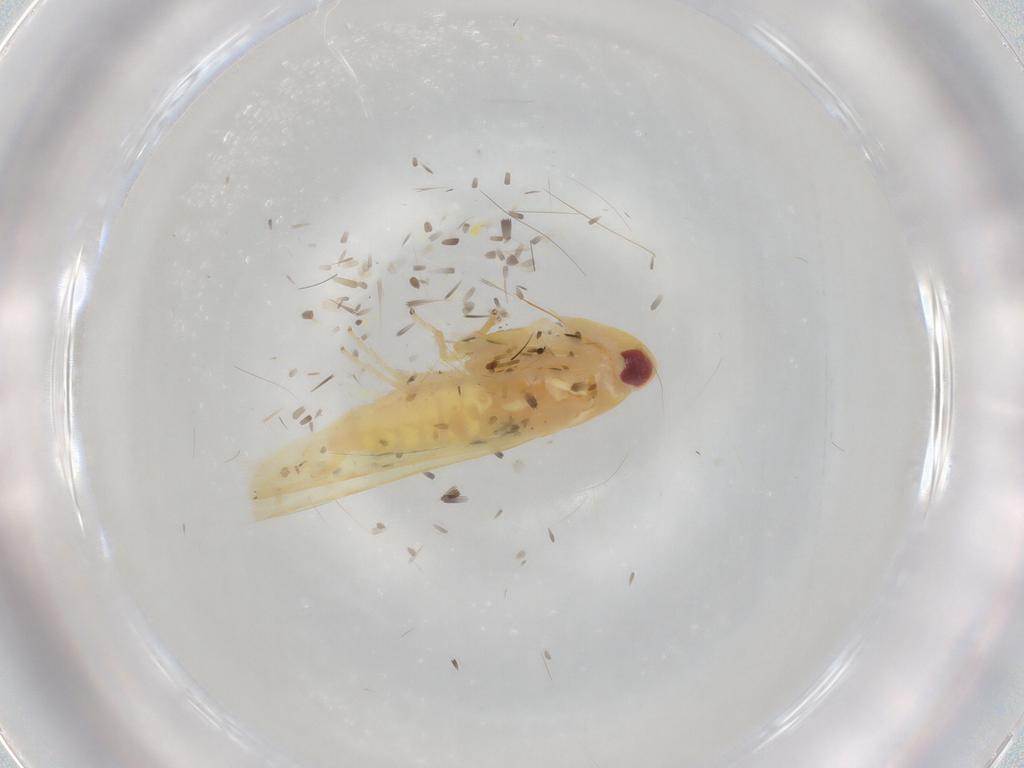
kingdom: Animalia
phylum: Arthropoda
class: Insecta
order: Hemiptera
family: Cicadellidae
